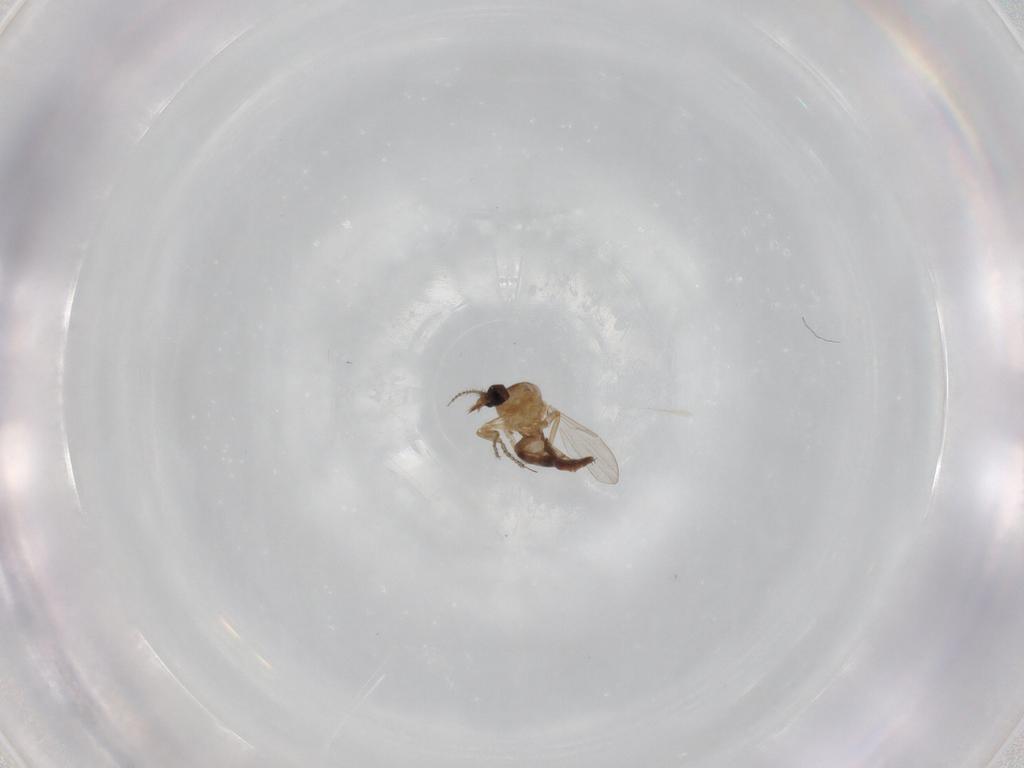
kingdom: Animalia
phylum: Arthropoda
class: Insecta
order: Diptera
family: Ceratopogonidae
